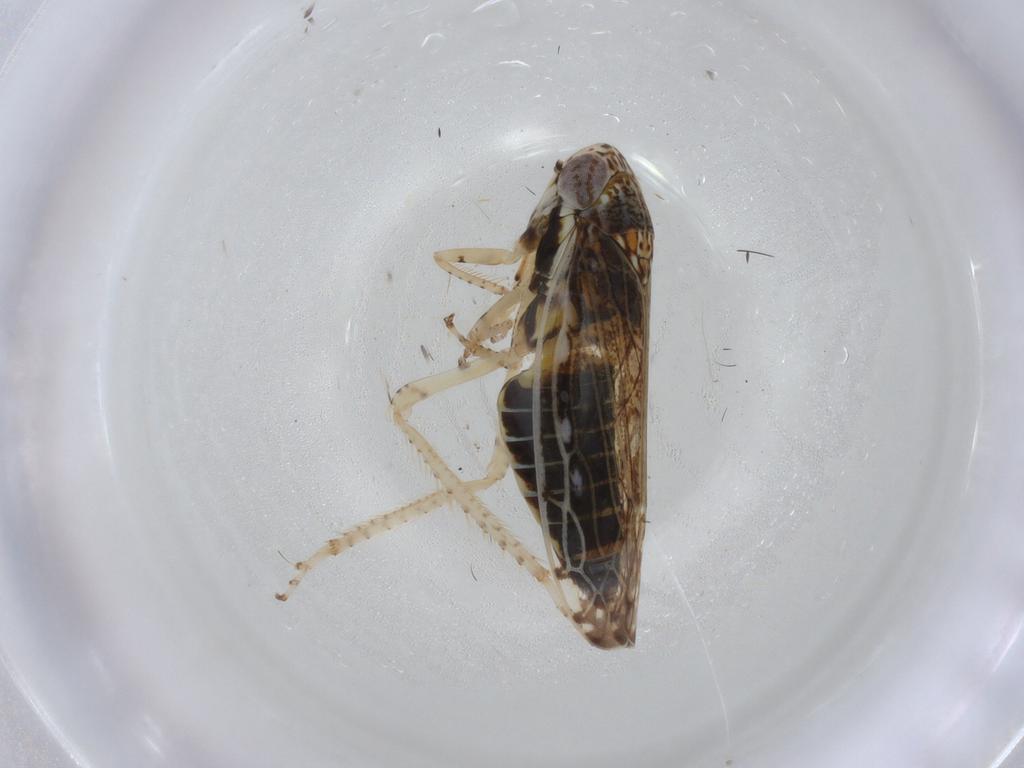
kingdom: Animalia
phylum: Arthropoda
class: Insecta
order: Hemiptera
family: Cicadellidae
